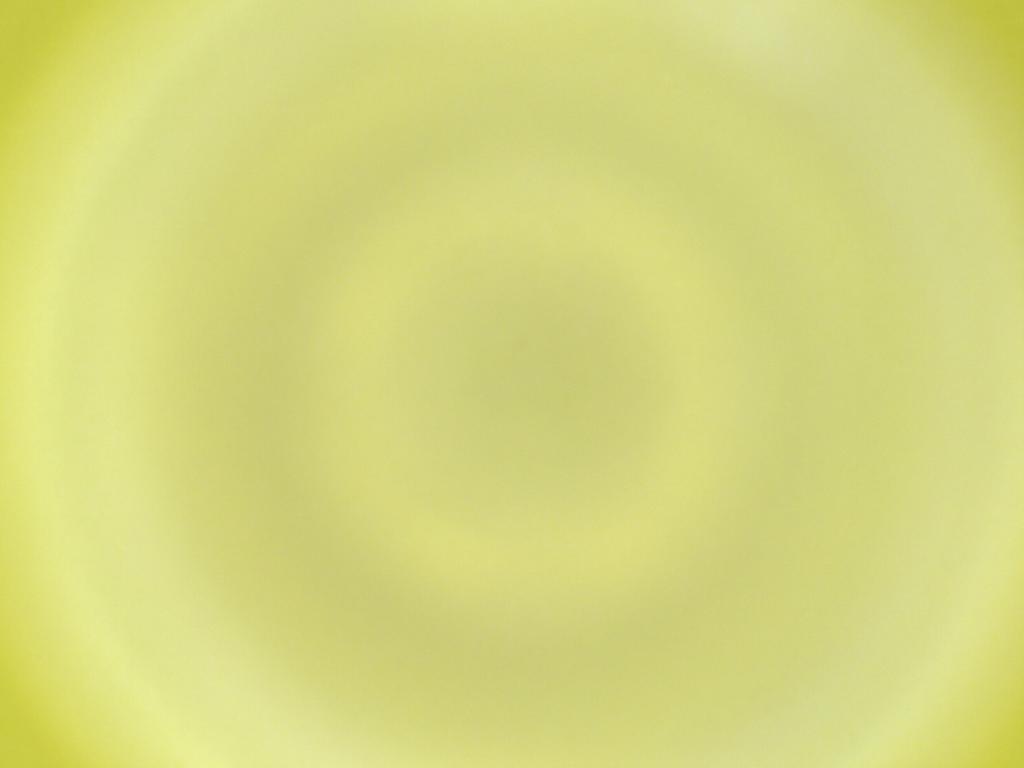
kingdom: Animalia
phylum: Arthropoda
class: Insecta
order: Diptera
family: Cecidomyiidae
